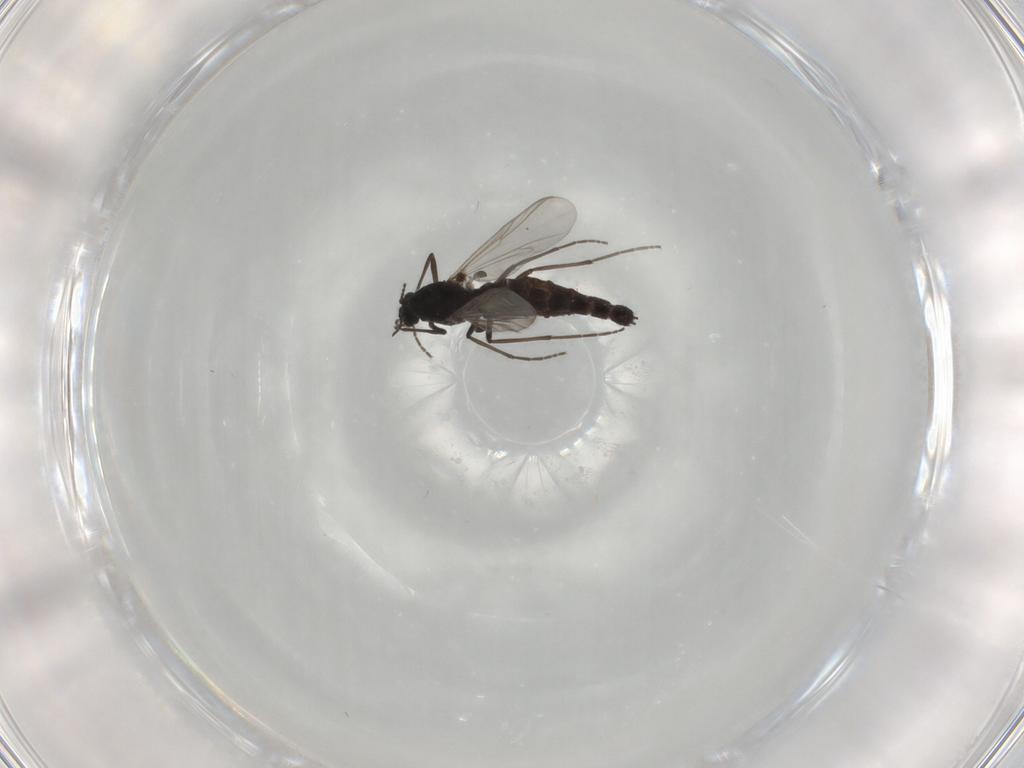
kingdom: Animalia
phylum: Arthropoda
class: Insecta
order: Diptera
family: Chironomidae
